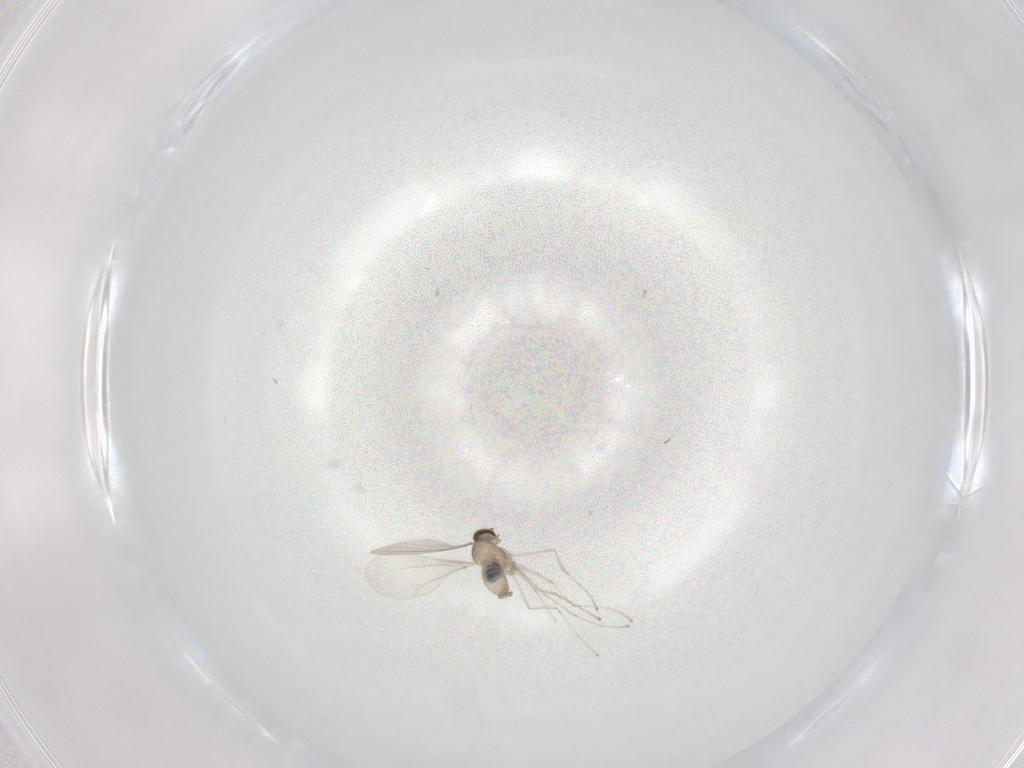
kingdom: Animalia
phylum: Arthropoda
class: Insecta
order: Diptera
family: Cecidomyiidae
